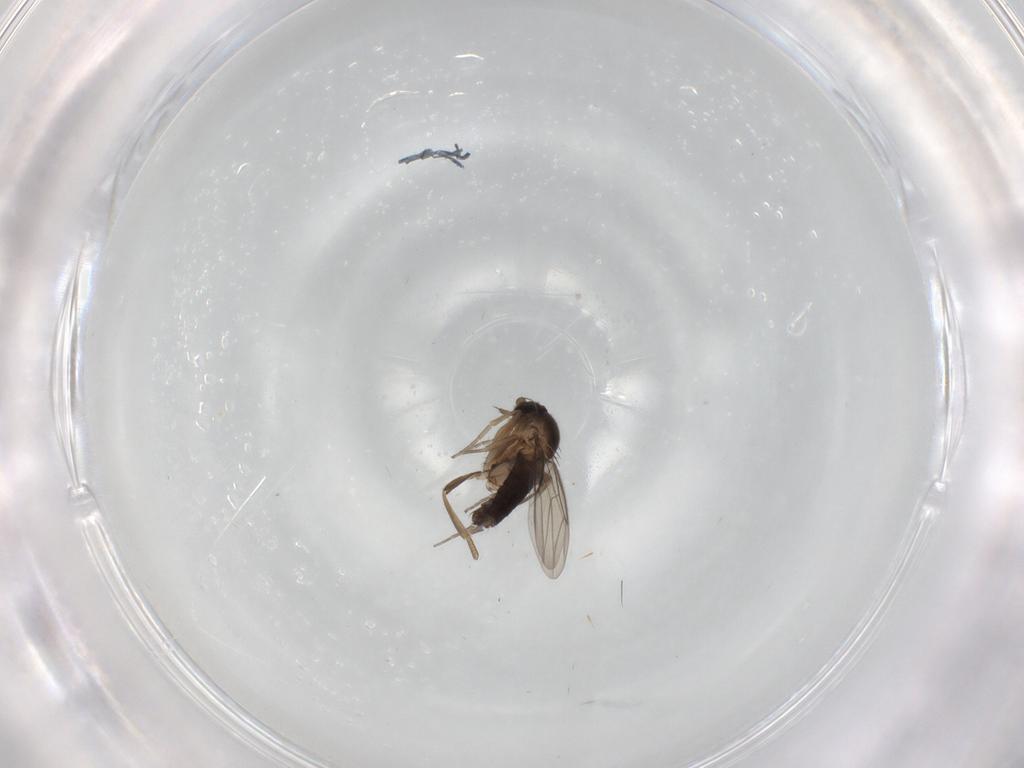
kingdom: Animalia
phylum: Arthropoda
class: Insecta
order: Diptera
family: Phoridae
